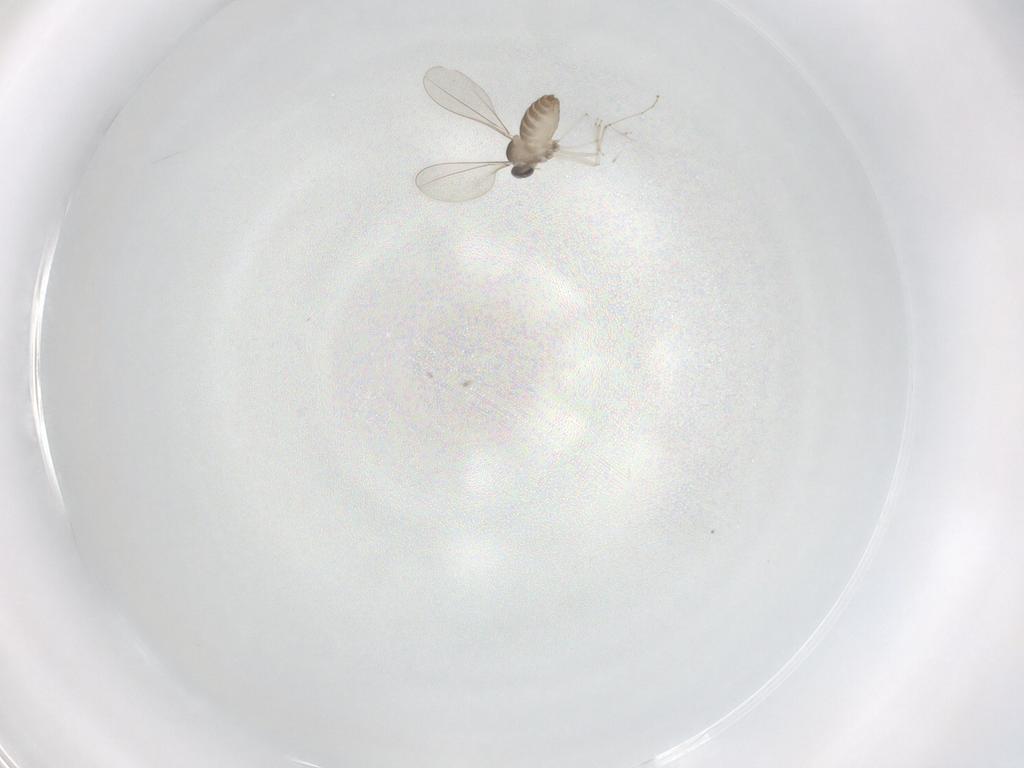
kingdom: Animalia
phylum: Arthropoda
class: Insecta
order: Diptera
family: Cecidomyiidae
